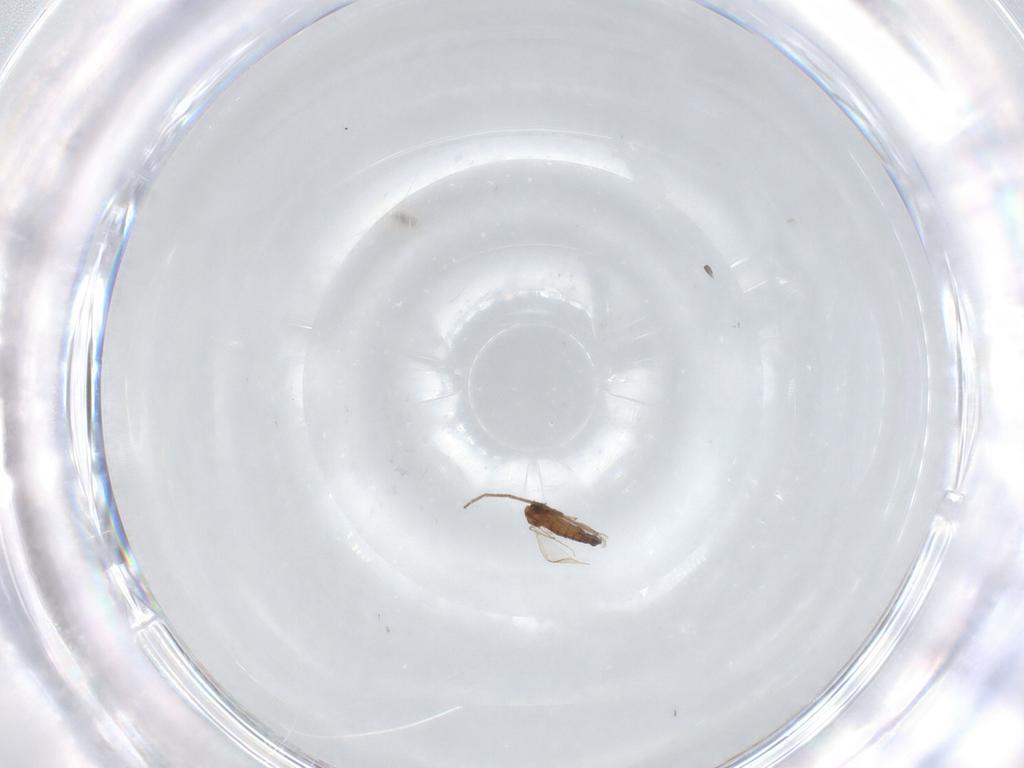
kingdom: Animalia
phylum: Arthropoda
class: Insecta
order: Diptera
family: Chironomidae
